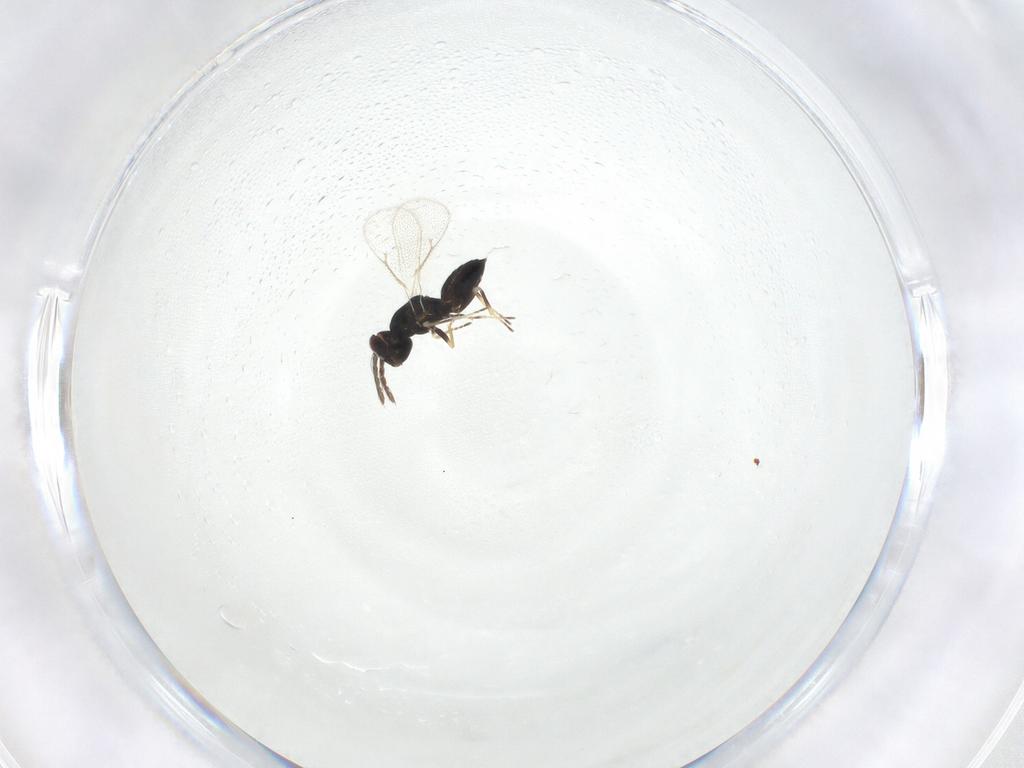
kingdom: Animalia
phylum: Arthropoda
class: Insecta
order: Hymenoptera
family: Eulophidae
